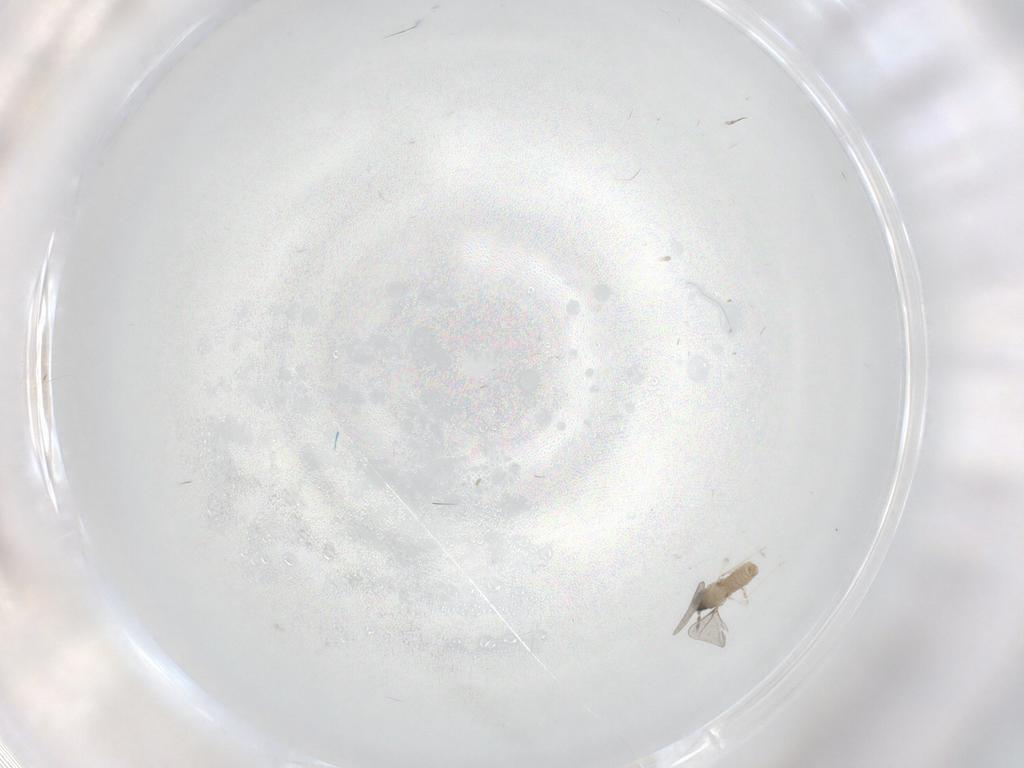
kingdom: Animalia
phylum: Arthropoda
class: Insecta
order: Diptera
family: Cecidomyiidae
